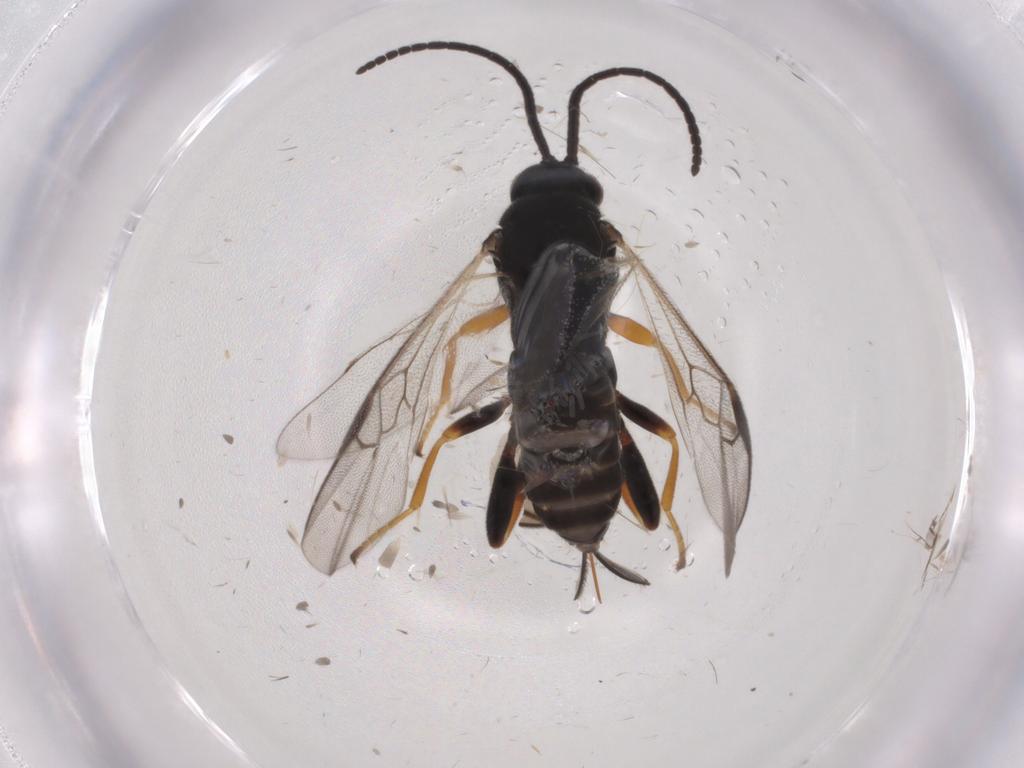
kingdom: Animalia
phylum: Arthropoda
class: Insecta
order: Hymenoptera
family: Braconidae
